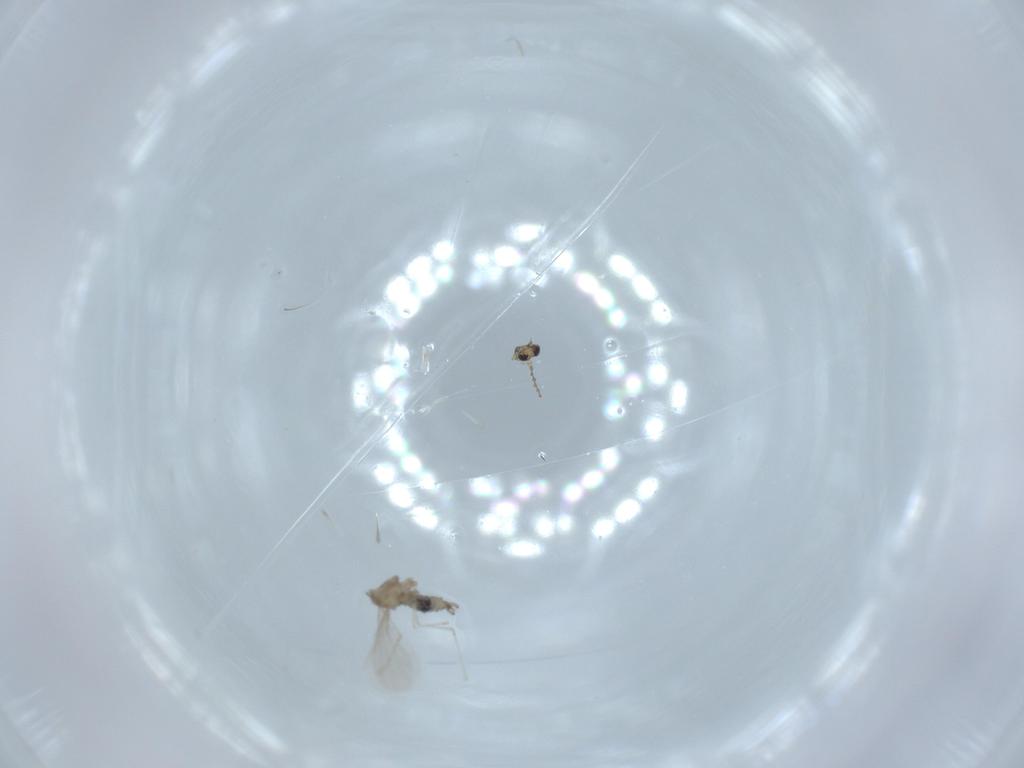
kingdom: Animalia
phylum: Arthropoda
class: Insecta
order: Diptera
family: Cecidomyiidae
